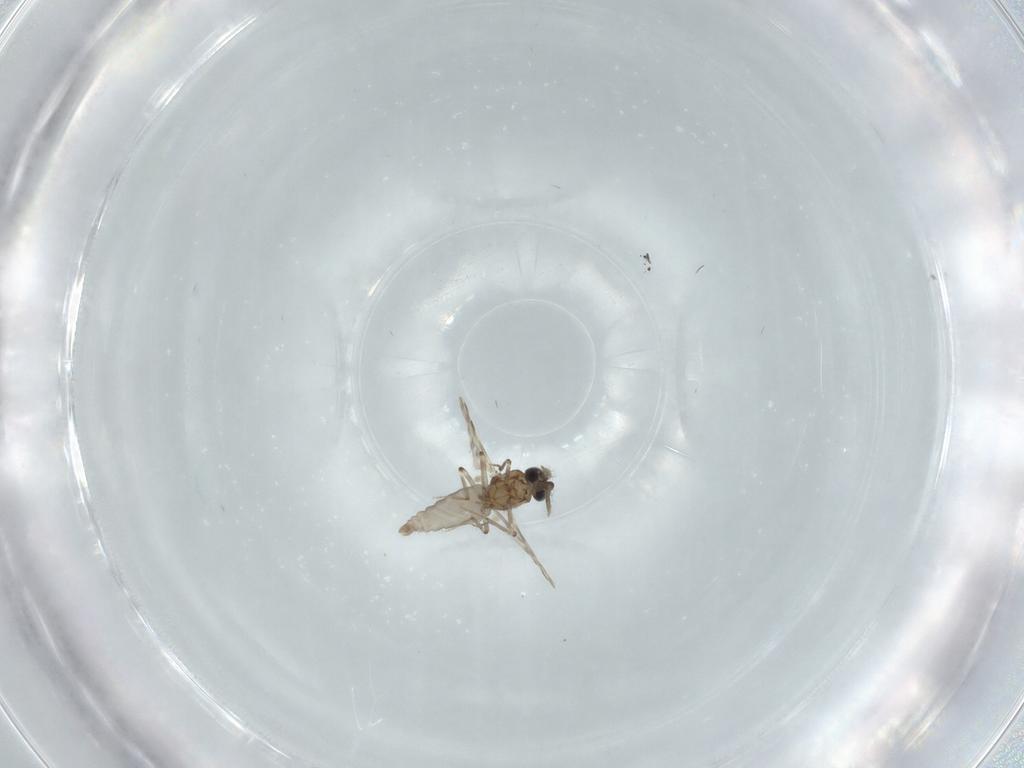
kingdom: Animalia
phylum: Arthropoda
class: Insecta
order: Diptera
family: Ceratopogonidae
